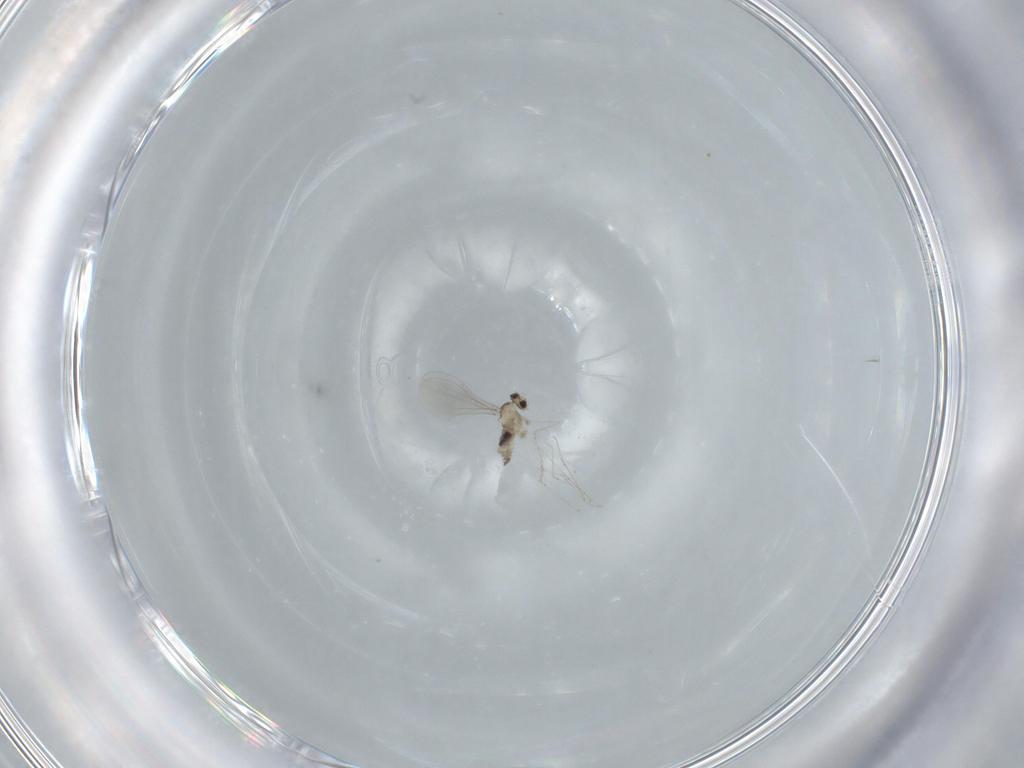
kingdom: Animalia
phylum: Arthropoda
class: Insecta
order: Diptera
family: Cecidomyiidae
